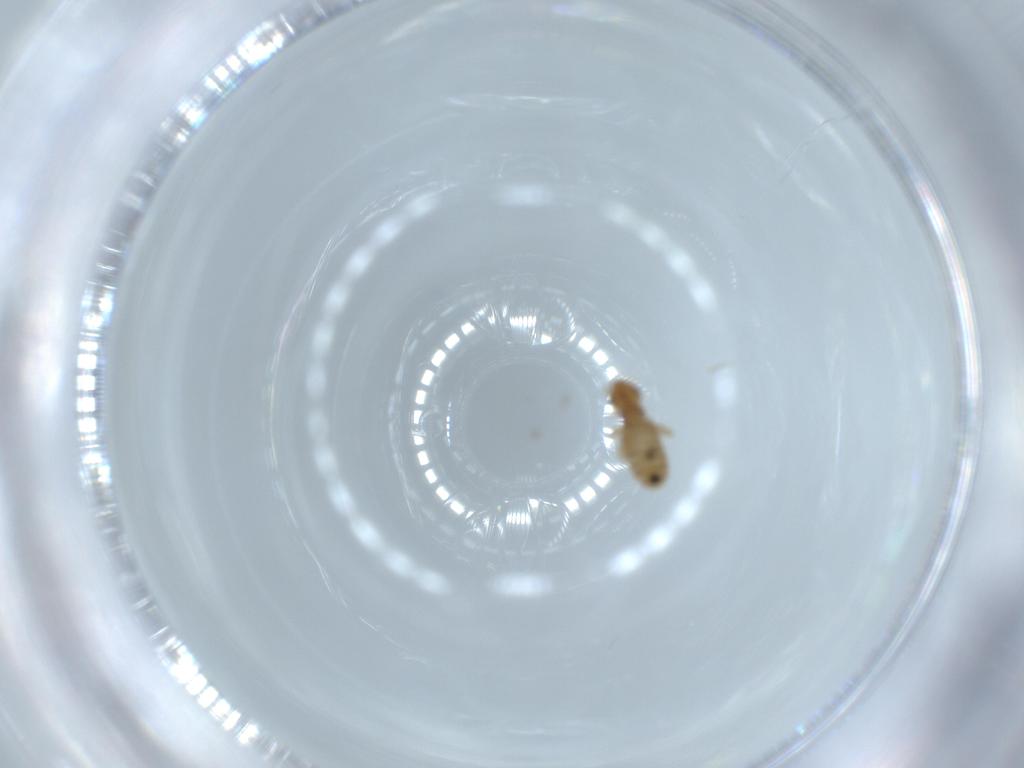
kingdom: Animalia
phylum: Arthropoda
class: Insecta
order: Psocodea
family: Liposcelididae
